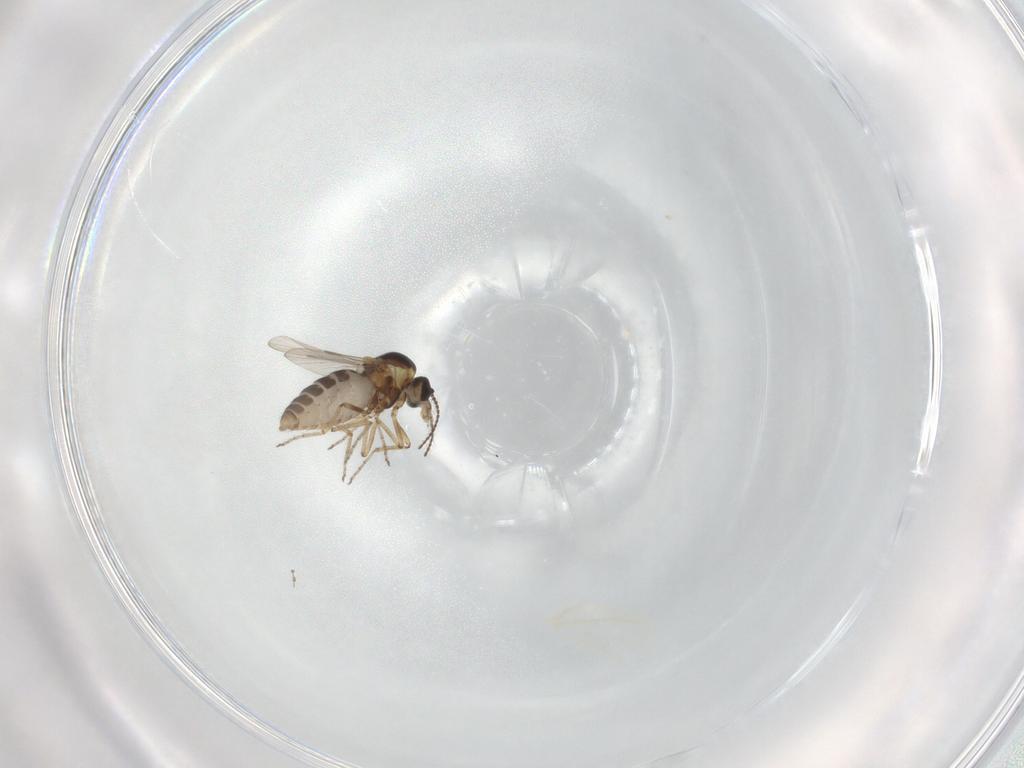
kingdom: Animalia
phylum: Arthropoda
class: Insecta
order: Diptera
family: Ceratopogonidae
